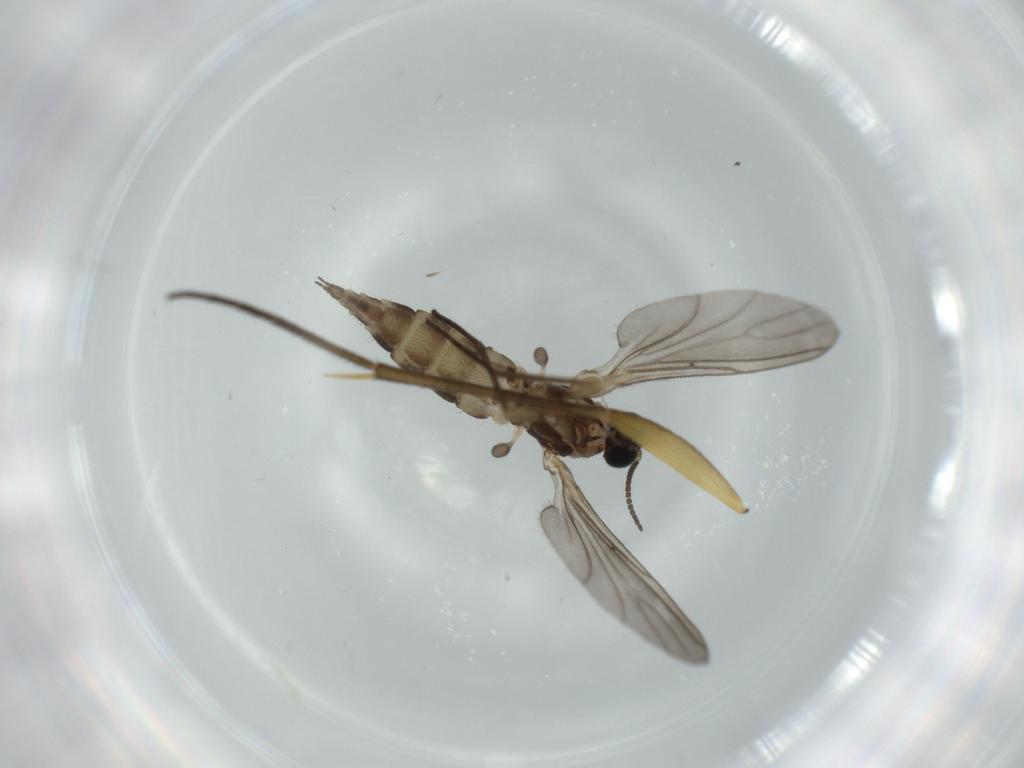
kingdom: Animalia
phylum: Arthropoda
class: Insecta
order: Diptera
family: Sciaridae
